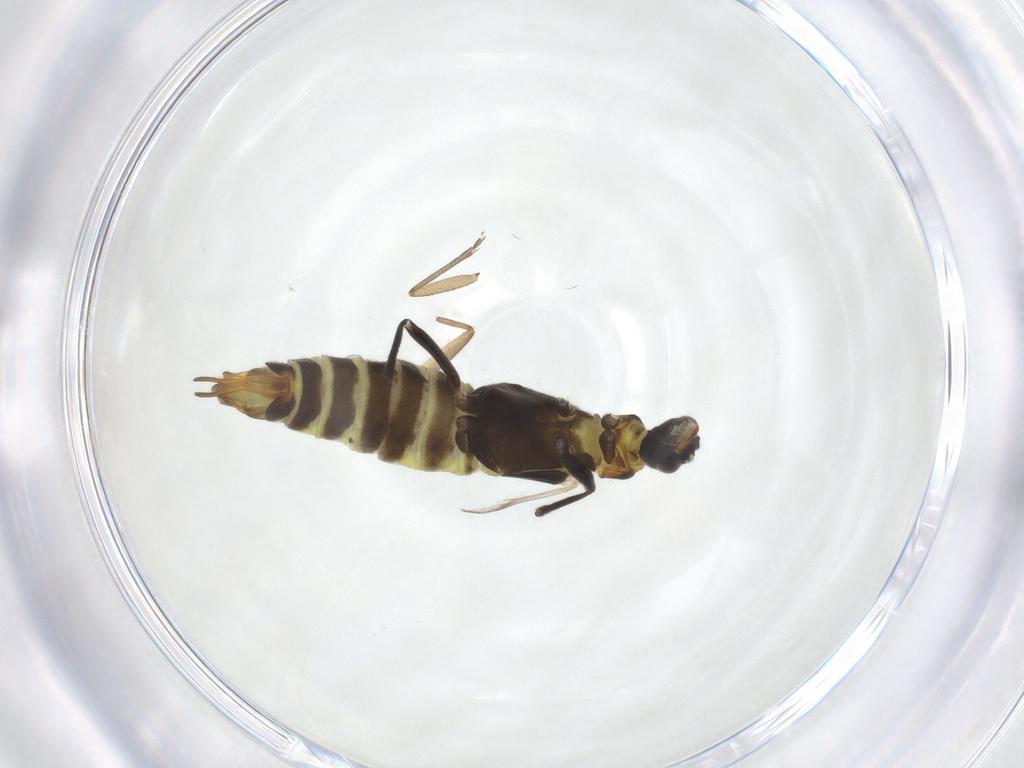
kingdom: Animalia
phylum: Arthropoda
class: Insecta
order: Coleoptera
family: Cantharidae
